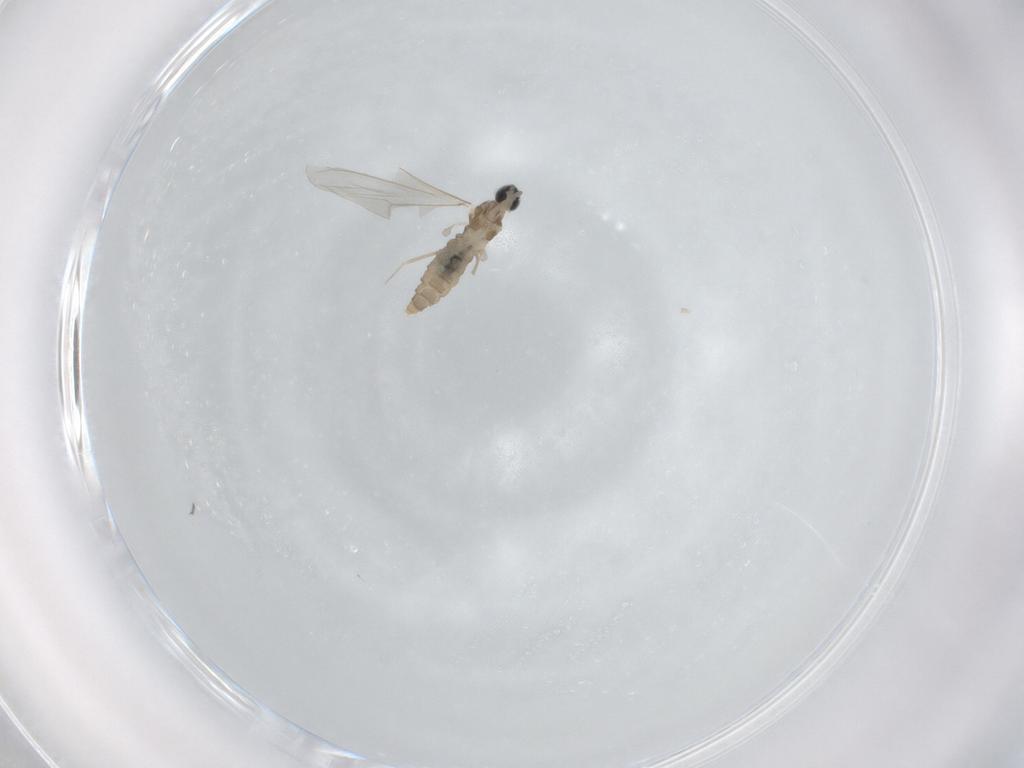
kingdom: Animalia
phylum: Arthropoda
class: Insecta
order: Diptera
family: Cecidomyiidae
